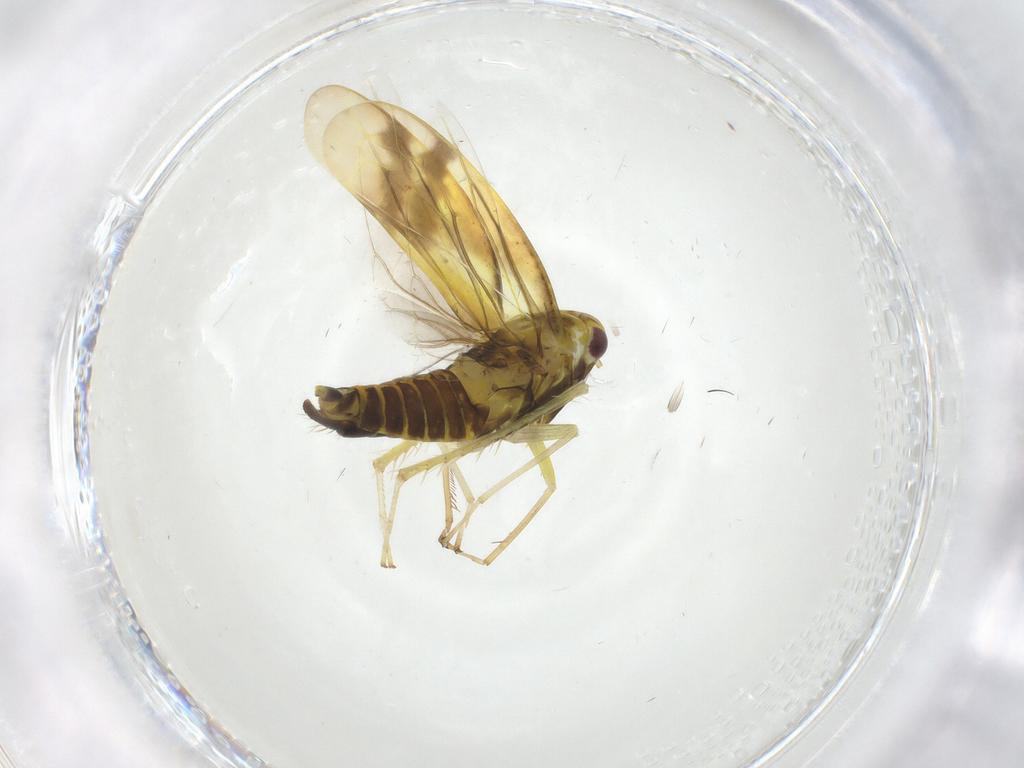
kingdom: Animalia
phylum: Arthropoda
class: Insecta
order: Hemiptera
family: Cicadellidae
